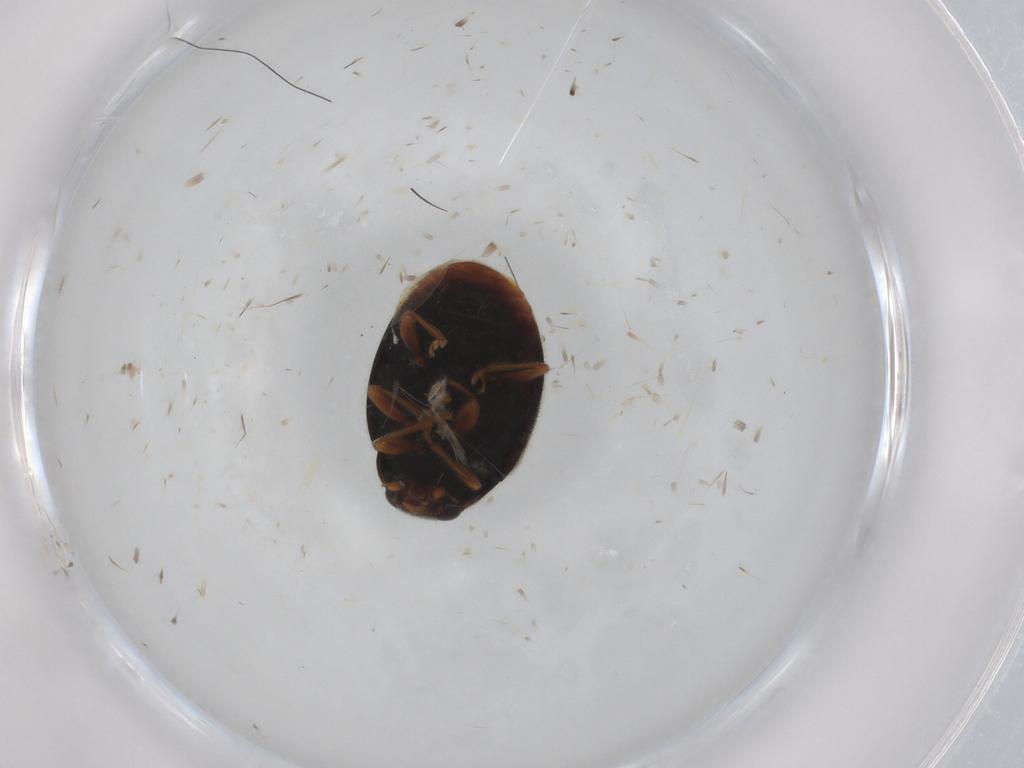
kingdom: Animalia
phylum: Arthropoda
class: Insecta
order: Coleoptera
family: Coccinellidae
